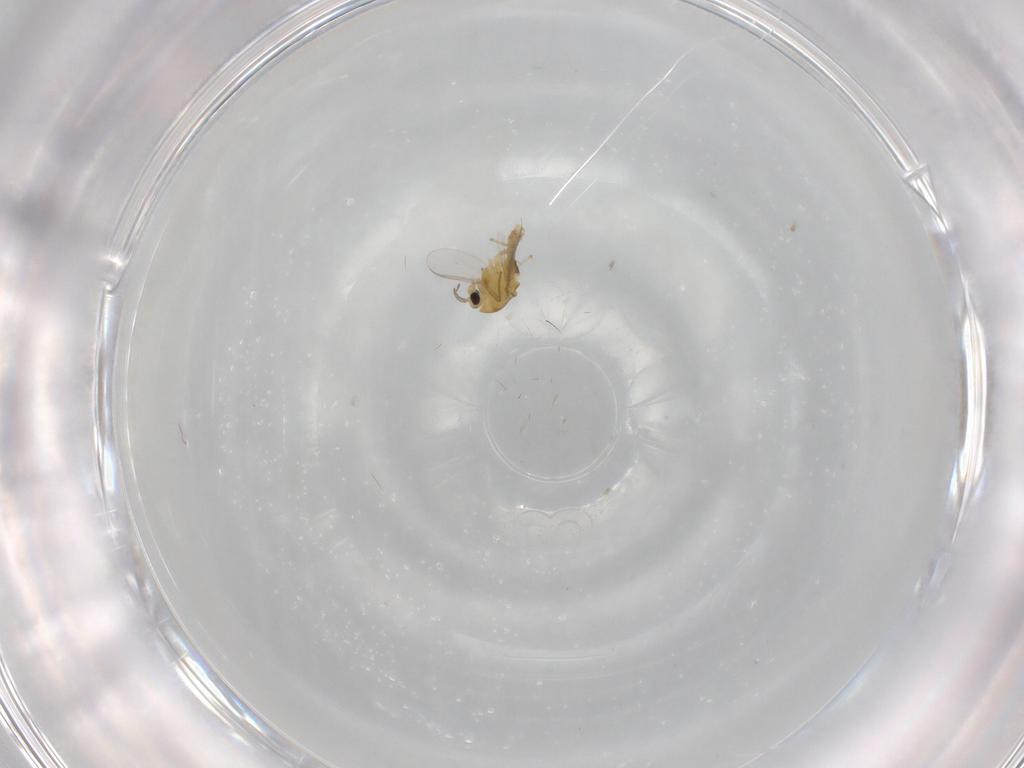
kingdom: Animalia
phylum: Arthropoda
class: Insecta
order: Diptera
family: Chironomidae
